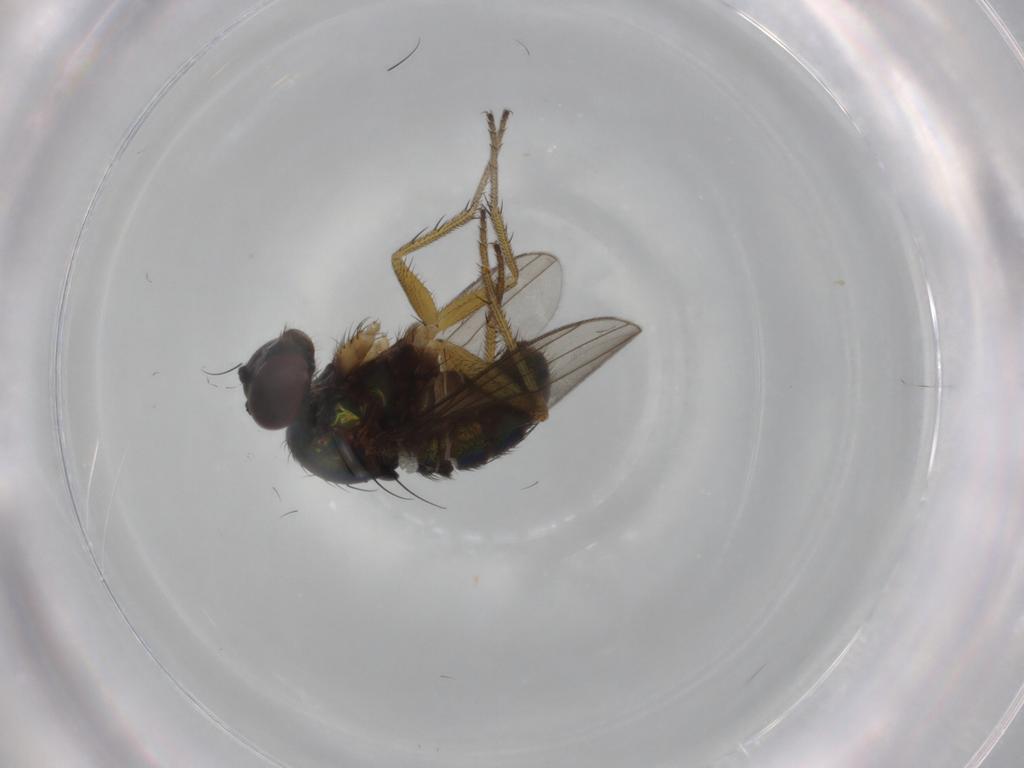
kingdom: Animalia
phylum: Arthropoda
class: Insecta
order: Diptera
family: Dolichopodidae
